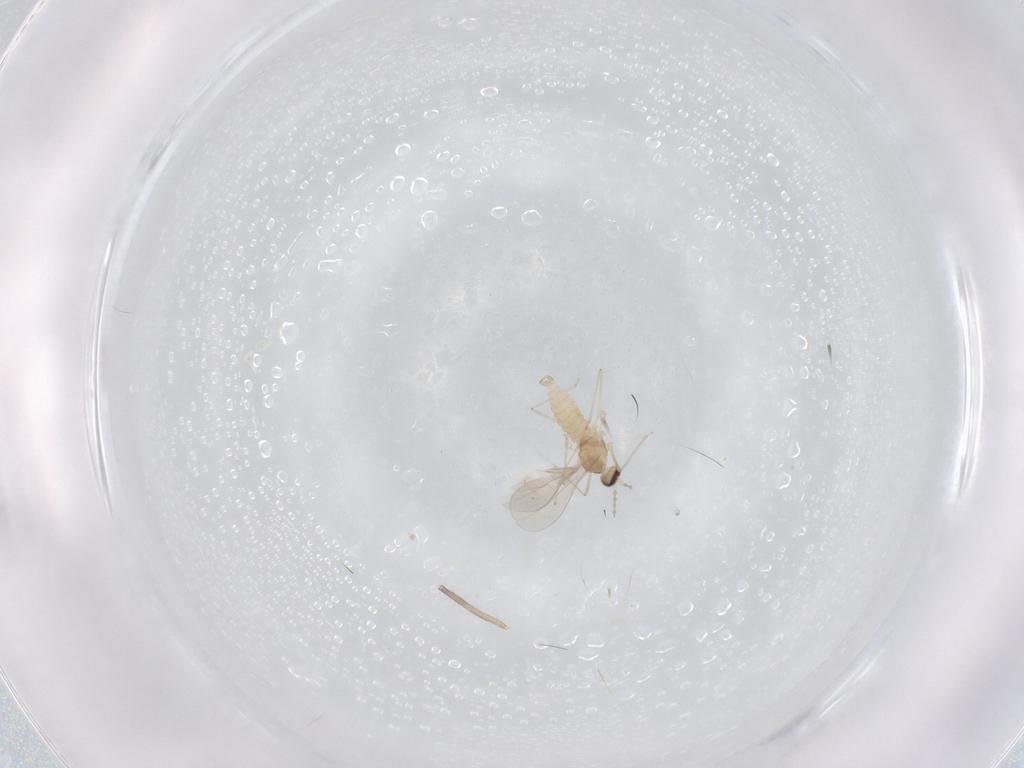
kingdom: Animalia
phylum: Arthropoda
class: Insecta
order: Diptera
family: Cecidomyiidae
